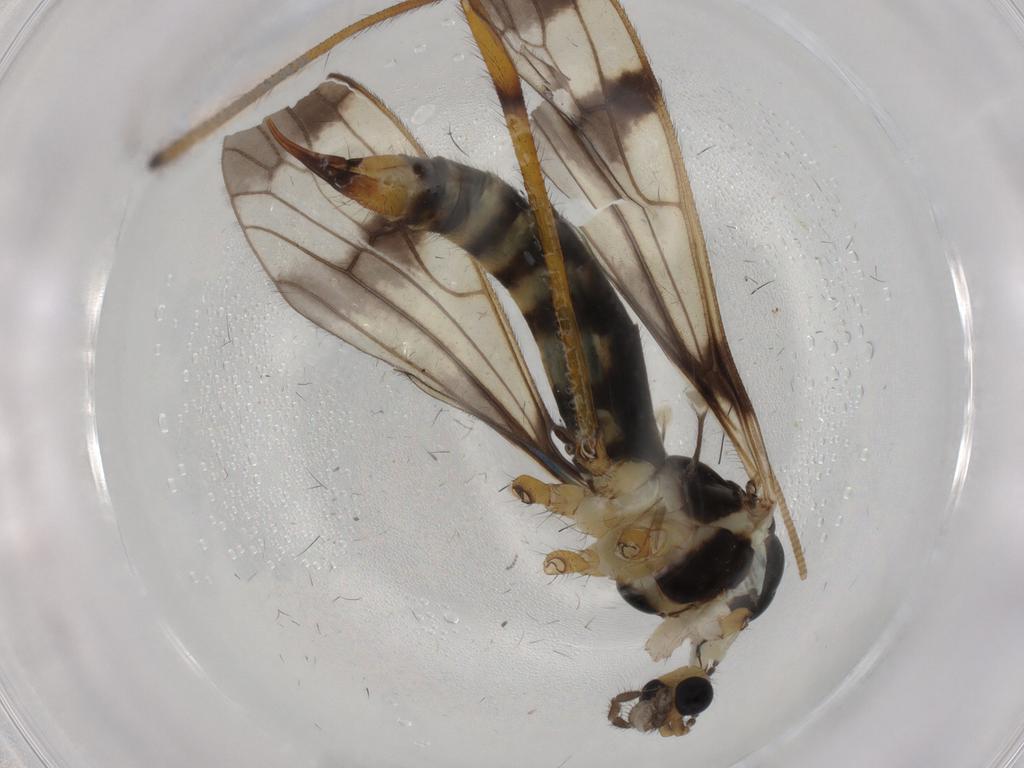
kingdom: Animalia
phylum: Arthropoda
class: Insecta
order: Diptera
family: Limoniidae
